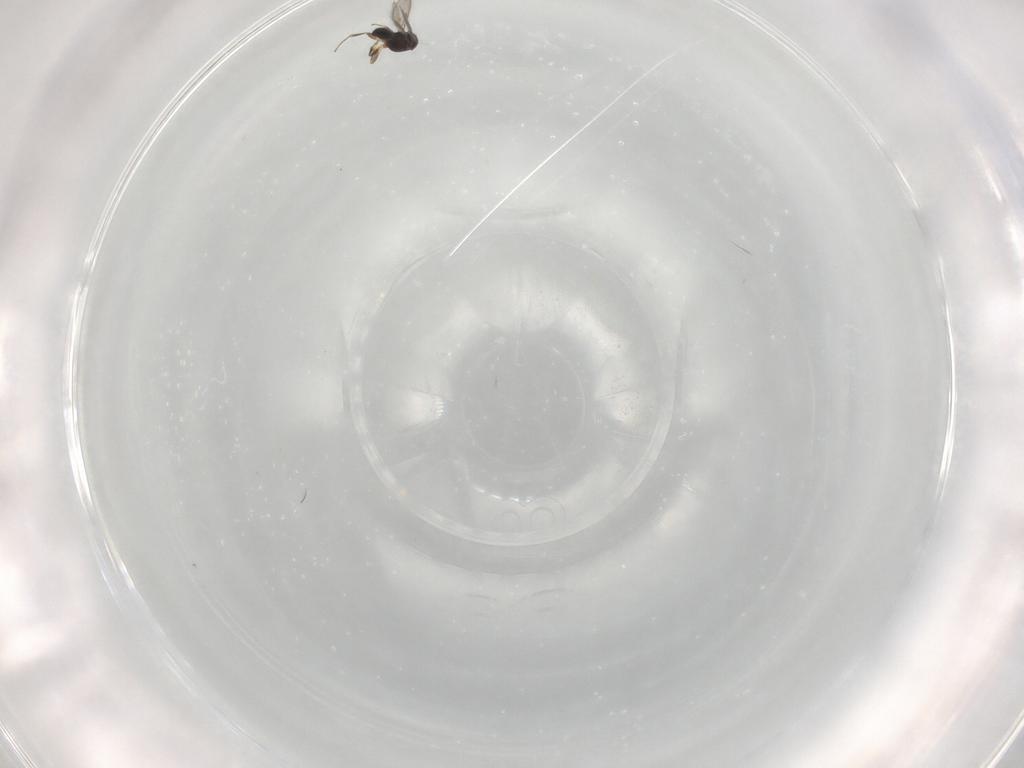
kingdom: Animalia
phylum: Arthropoda
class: Insecta
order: Hymenoptera
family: Scelionidae
